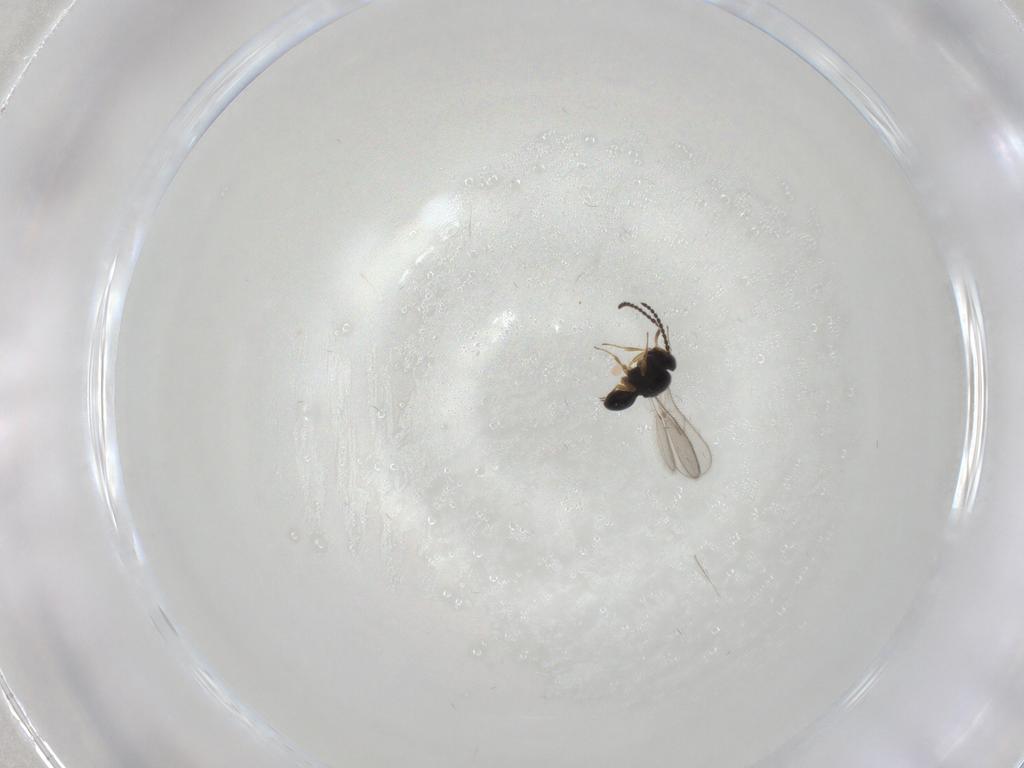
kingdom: Animalia
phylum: Arthropoda
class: Insecta
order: Hymenoptera
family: Scelionidae
